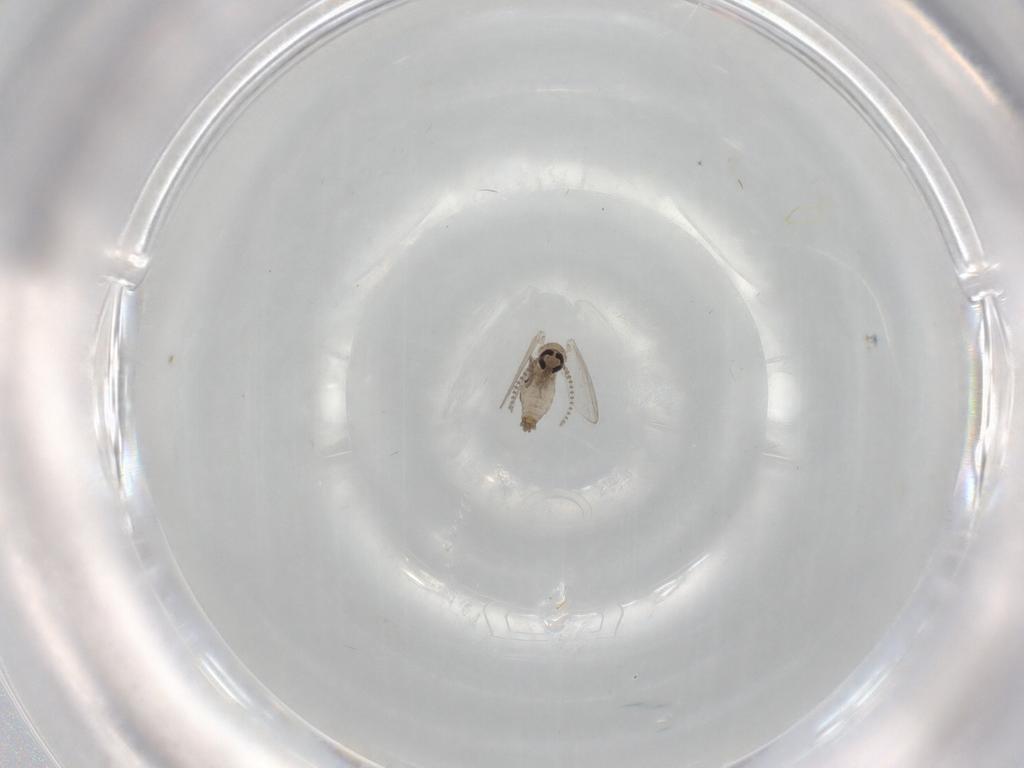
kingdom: Animalia
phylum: Arthropoda
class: Insecta
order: Diptera
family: Psychodidae
